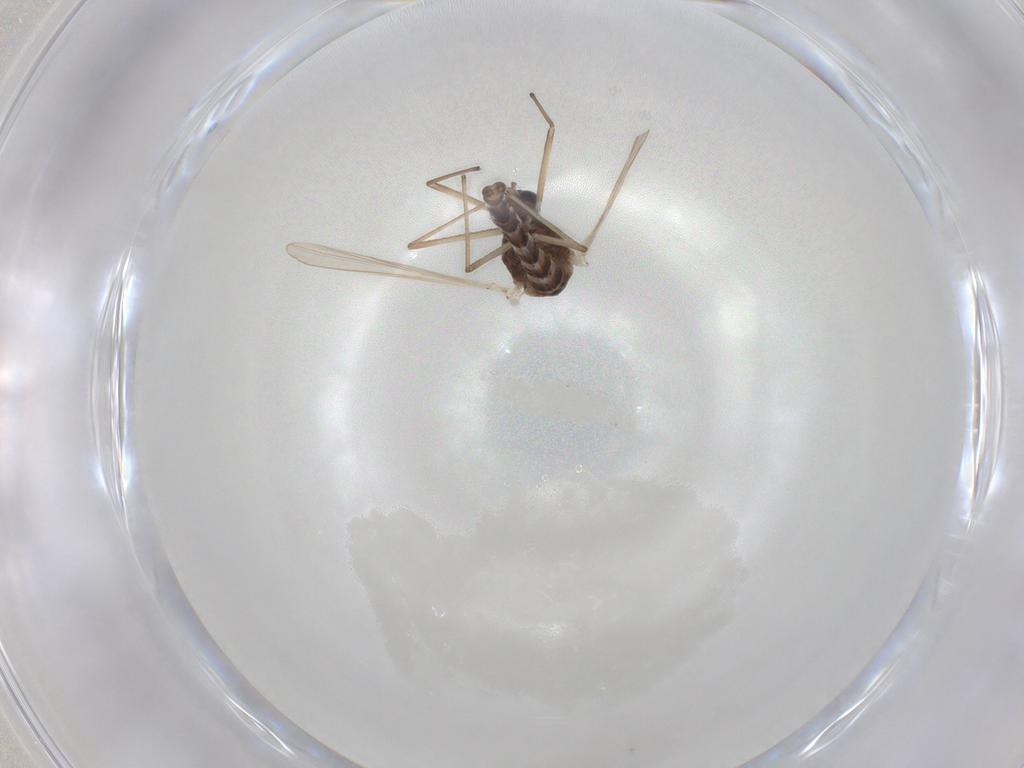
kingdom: Animalia
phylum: Arthropoda
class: Insecta
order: Diptera
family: Chironomidae
